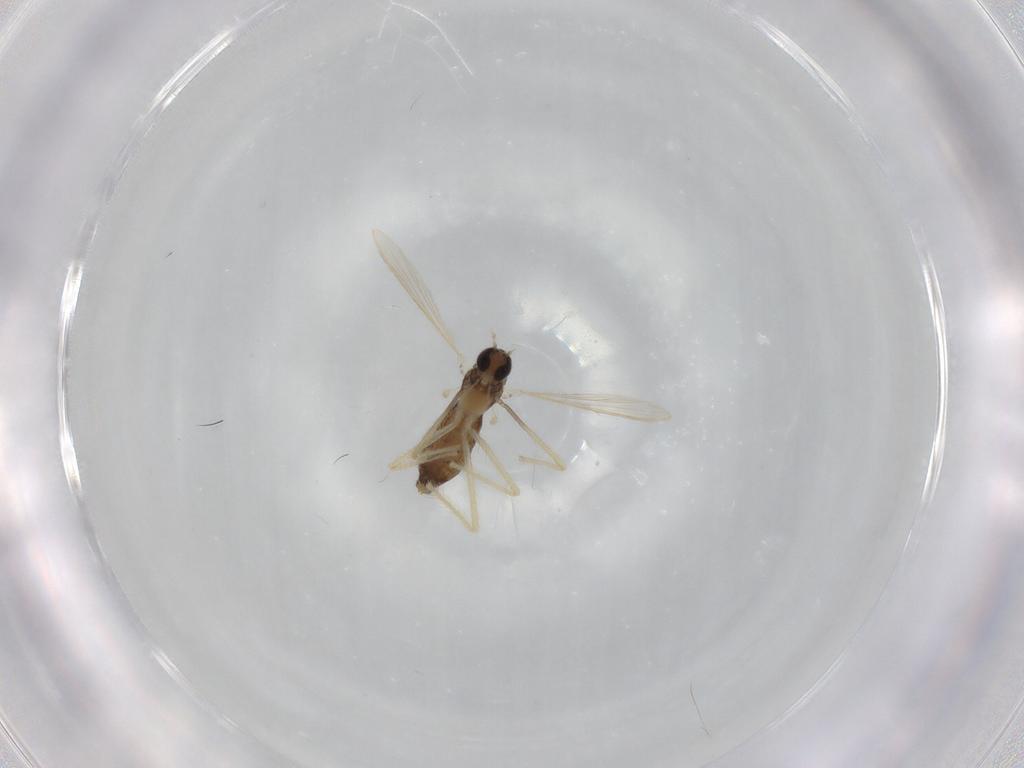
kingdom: Animalia
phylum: Arthropoda
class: Insecta
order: Diptera
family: Chironomidae
